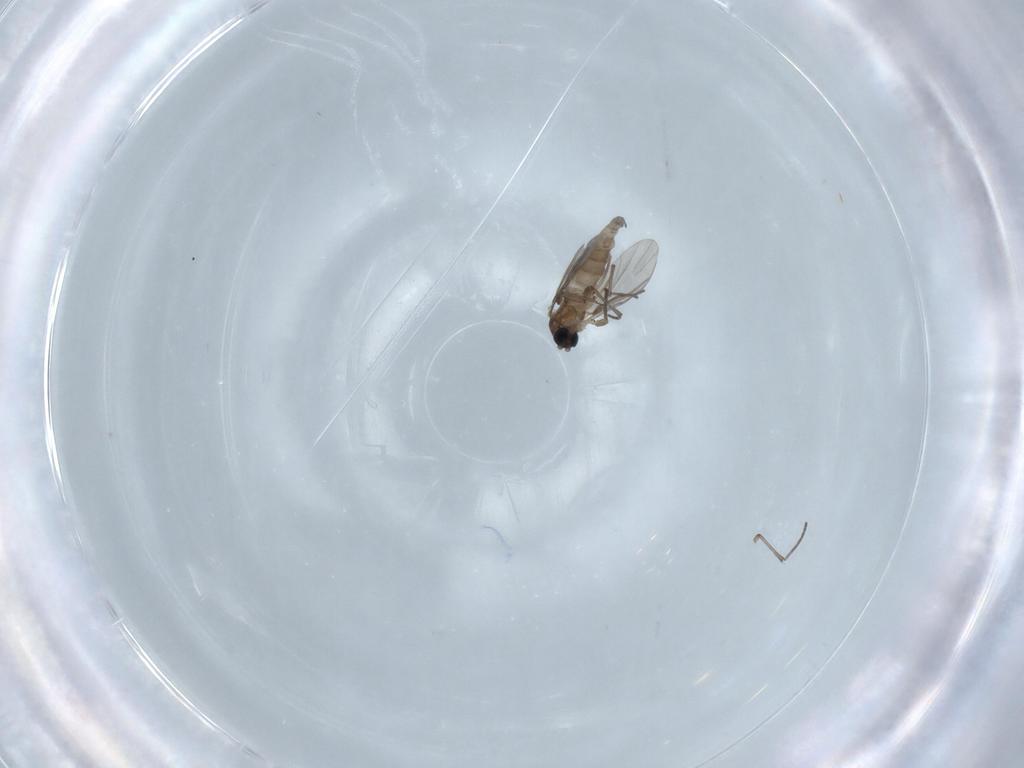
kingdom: Animalia
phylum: Arthropoda
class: Insecta
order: Diptera
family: Sciaridae
